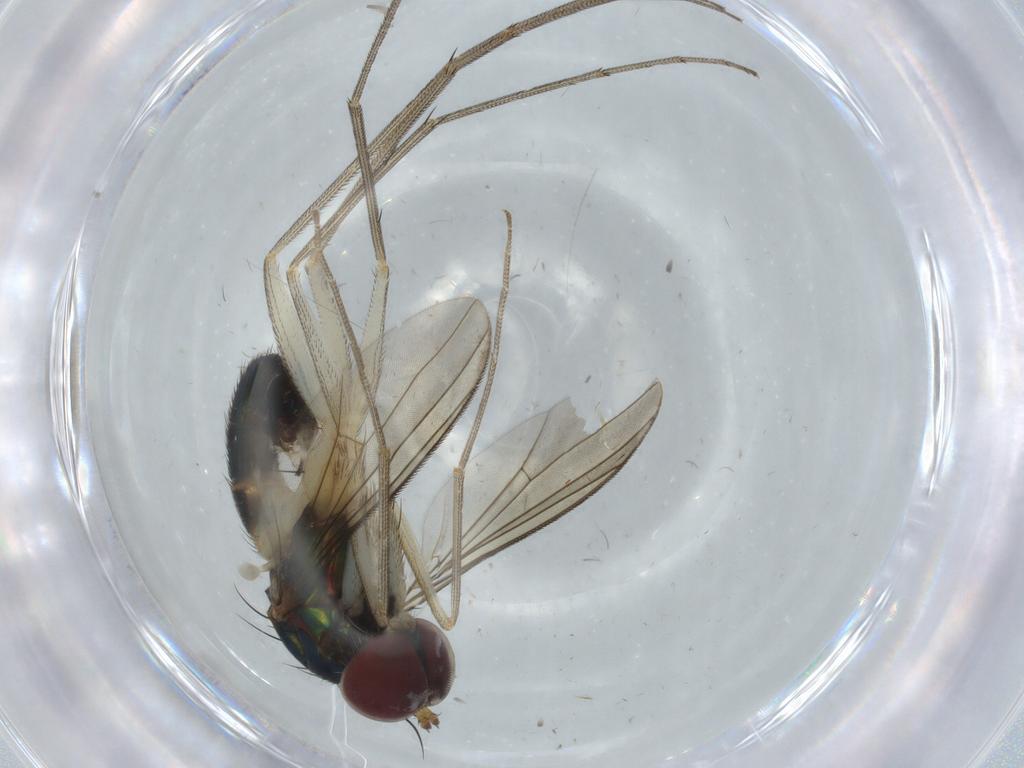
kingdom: Animalia
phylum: Arthropoda
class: Insecta
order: Diptera
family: Dolichopodidae
